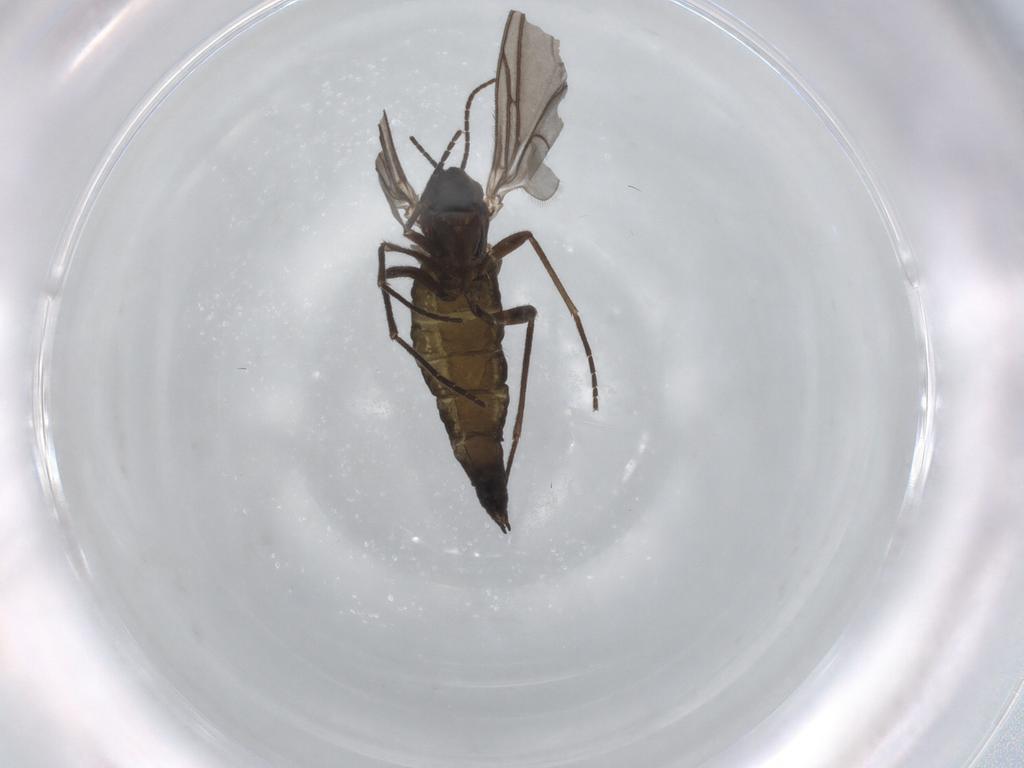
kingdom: Animalia
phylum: Arthropoda
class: Insecta
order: Diptera
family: Sciaridae
